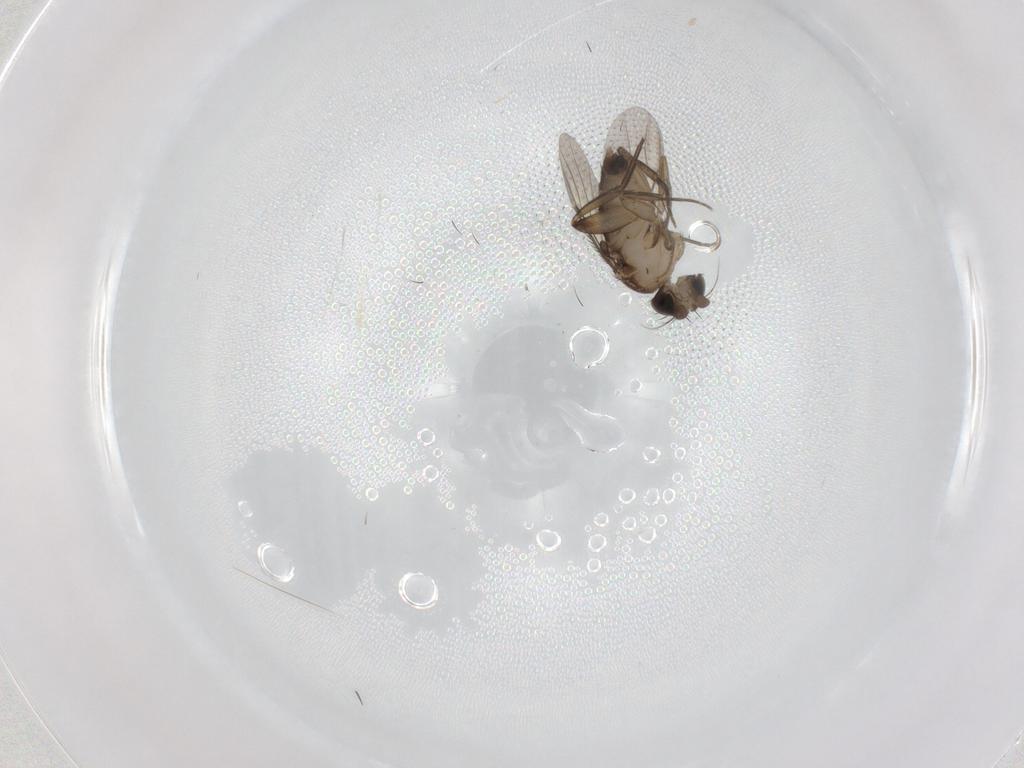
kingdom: Animalia
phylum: Arthropoda
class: Insecta
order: Diptera
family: Phoridae
